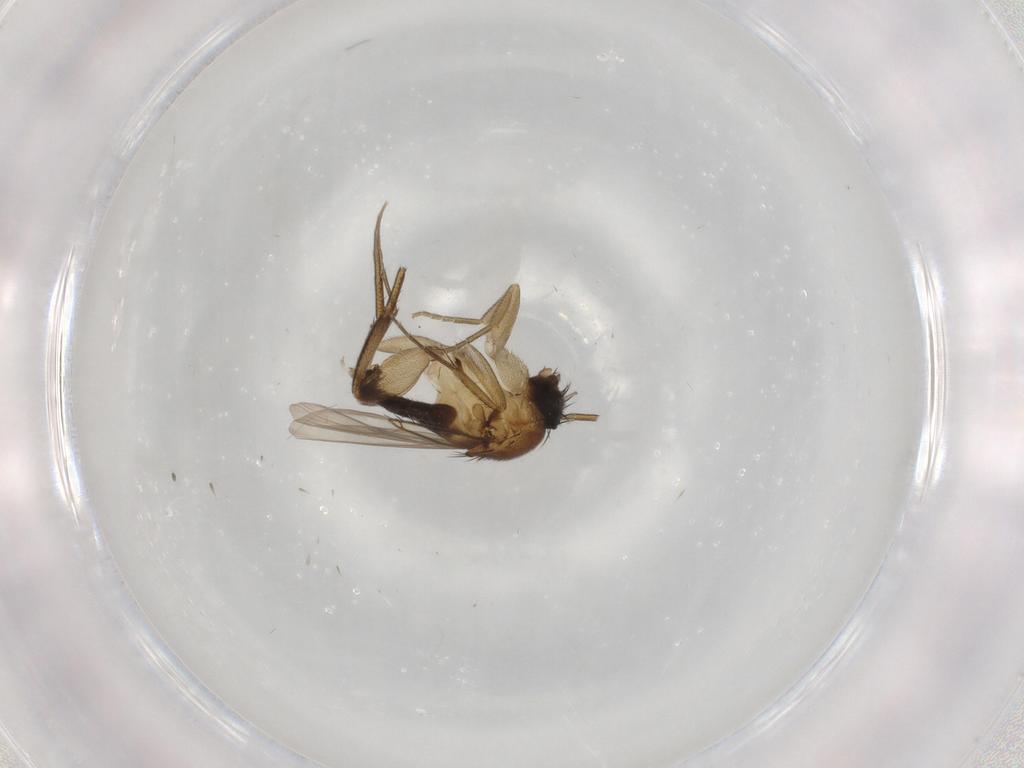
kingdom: Animalia
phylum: Arthropoda
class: Insecta
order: Diptera
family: Phoridae
